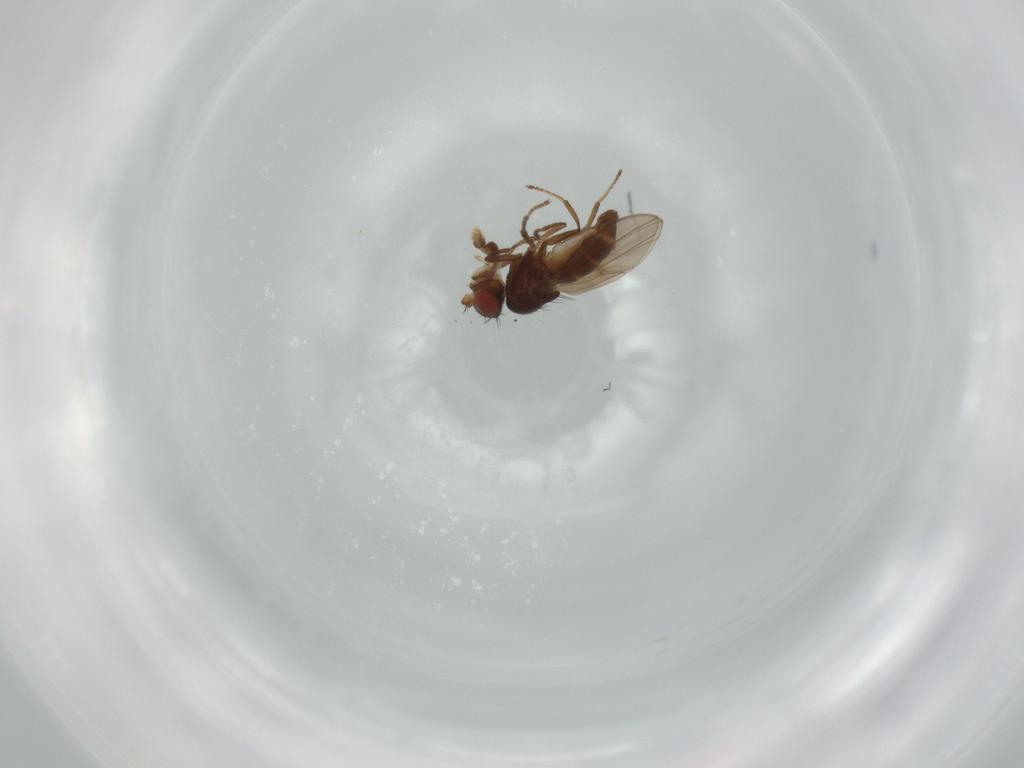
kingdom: Animalia
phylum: Arthropoda
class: Insecta
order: Diptera
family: Ephydridae
